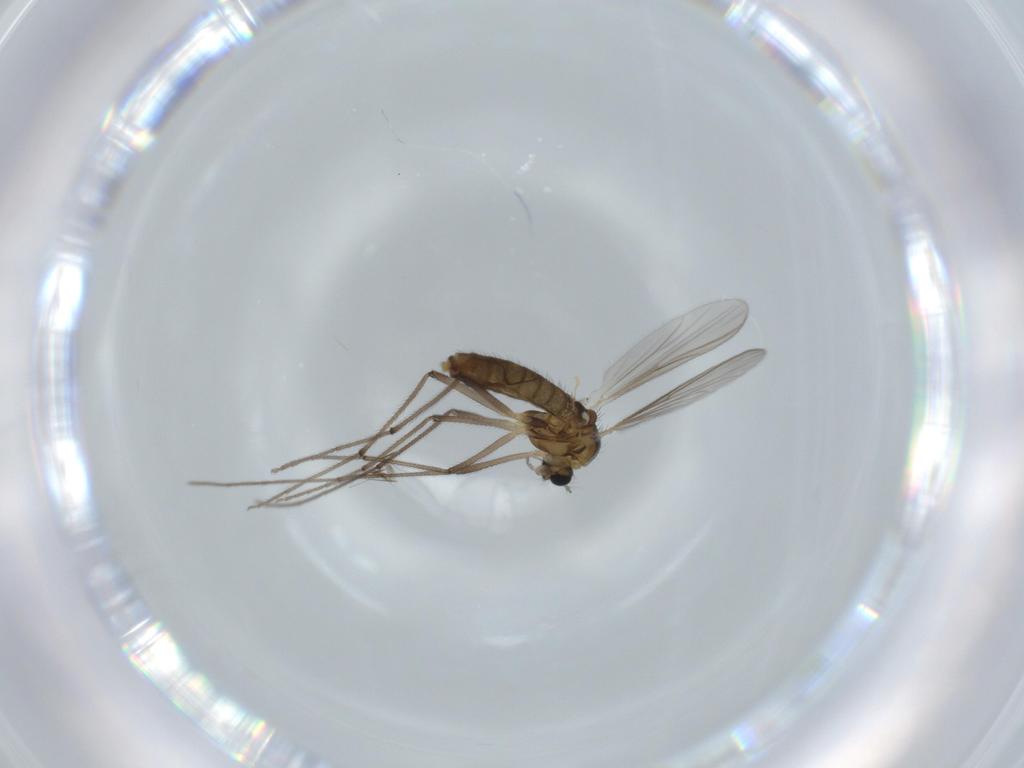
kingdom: Animalia
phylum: Arthropoda
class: Insecta
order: Diptera
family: Chironomidae
